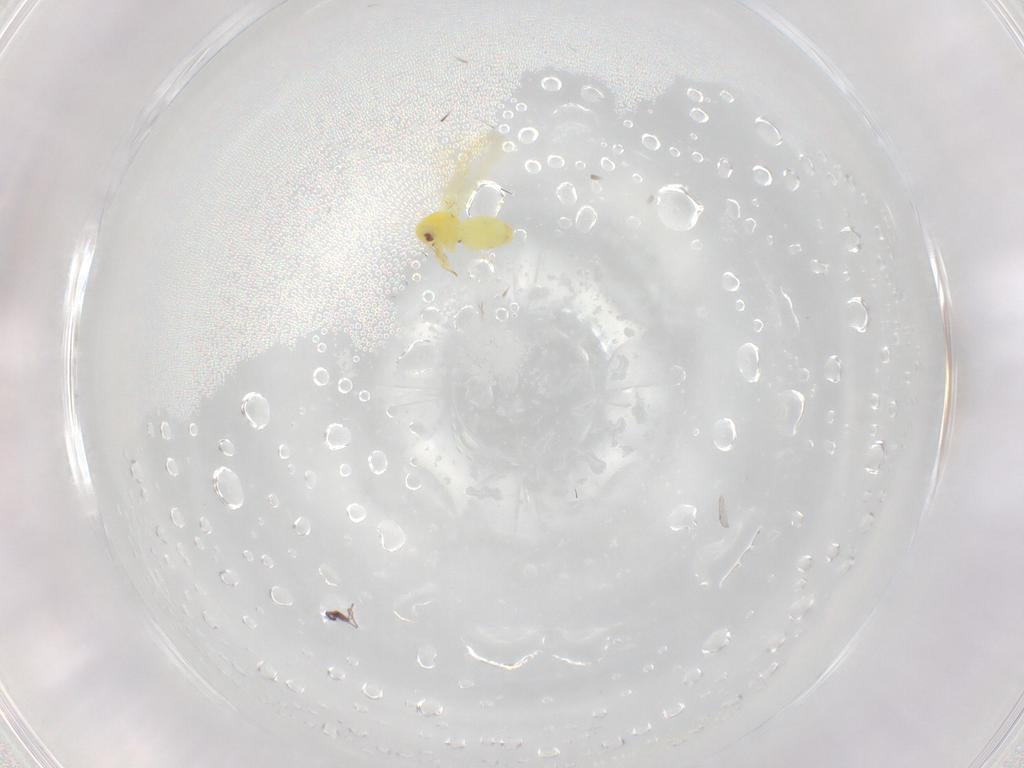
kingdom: Animalia
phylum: Arthropoda
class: Insecta
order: Hemiptera
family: Aleyrodidae
